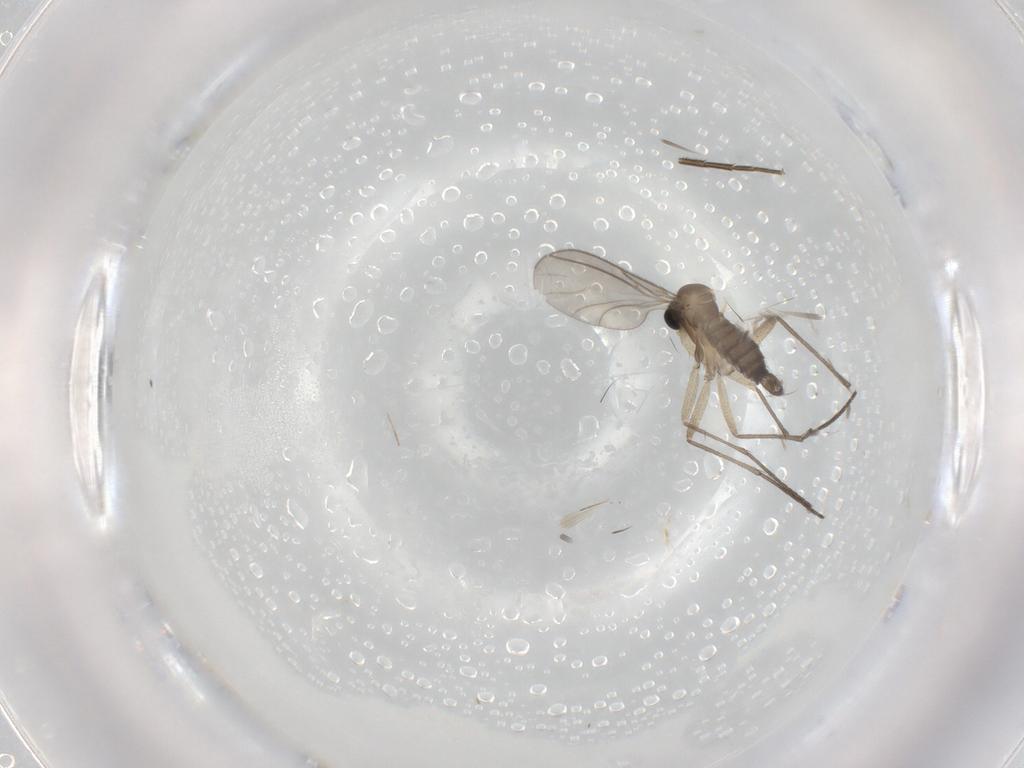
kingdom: Animalia
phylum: Arthropoda
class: Insecta
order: Diptera
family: Sciaridae
